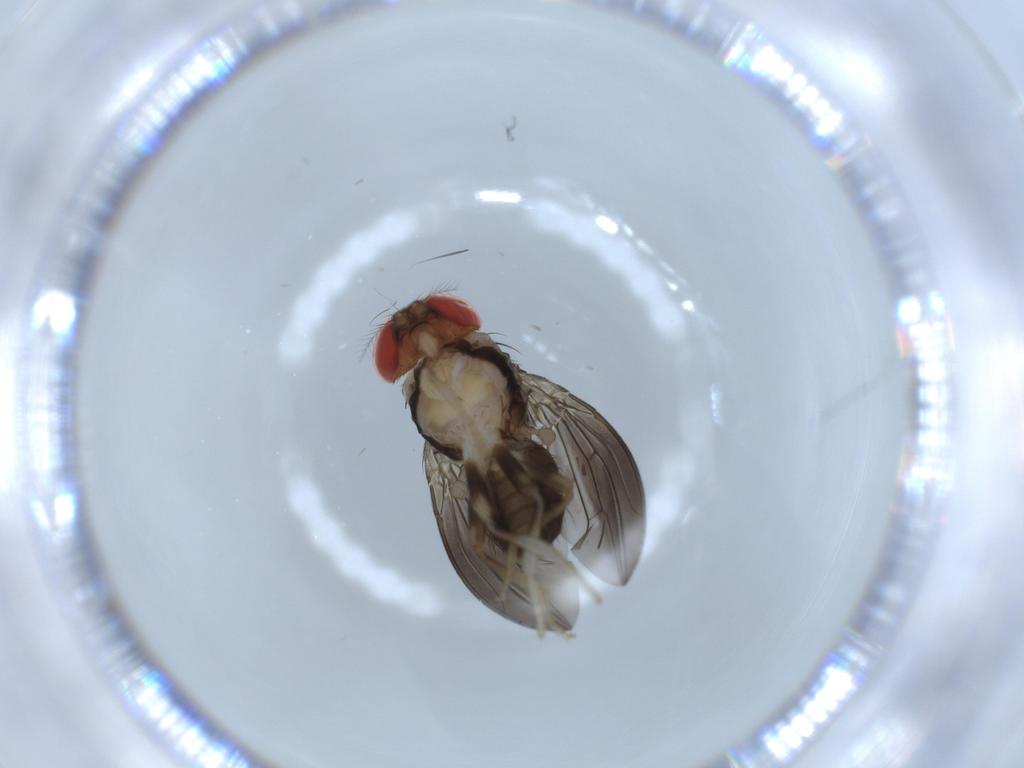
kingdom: Animalia
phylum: Arthropoda
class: Insecta
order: Diptera
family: Drosophilidae
